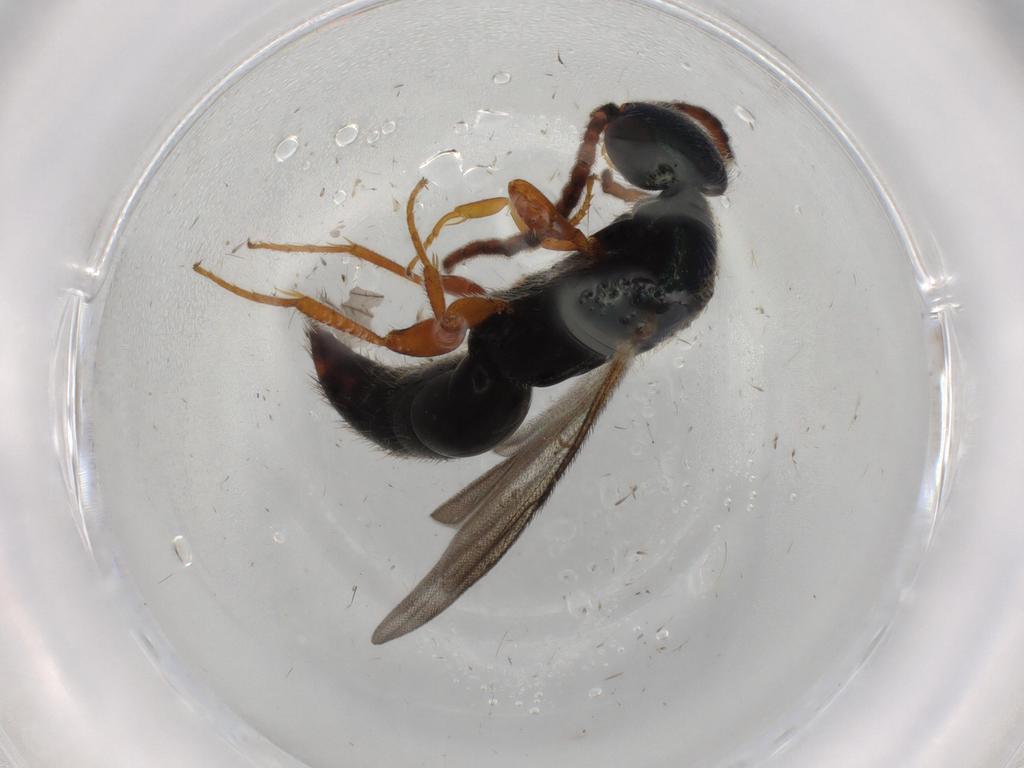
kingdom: Animalia
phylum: Arthropoda
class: Insecta
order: Hymenoptera
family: Bethylidae
